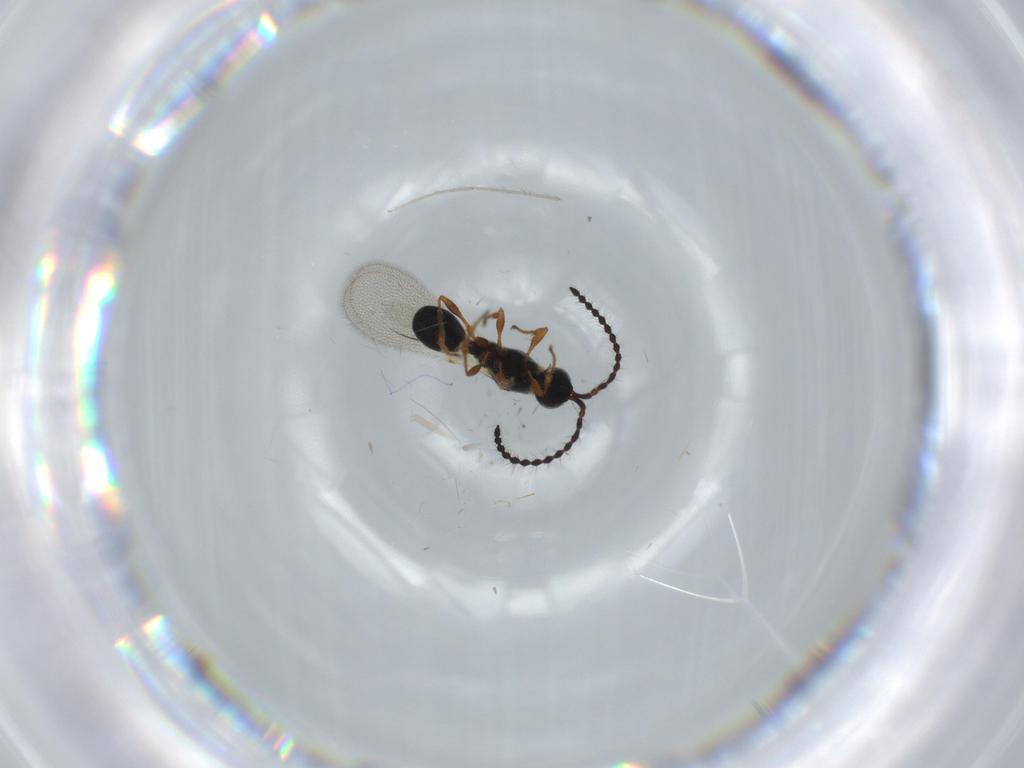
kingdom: Animalia
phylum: Arthropoda
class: Insecta
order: Hymenoptera
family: Diapriidae
